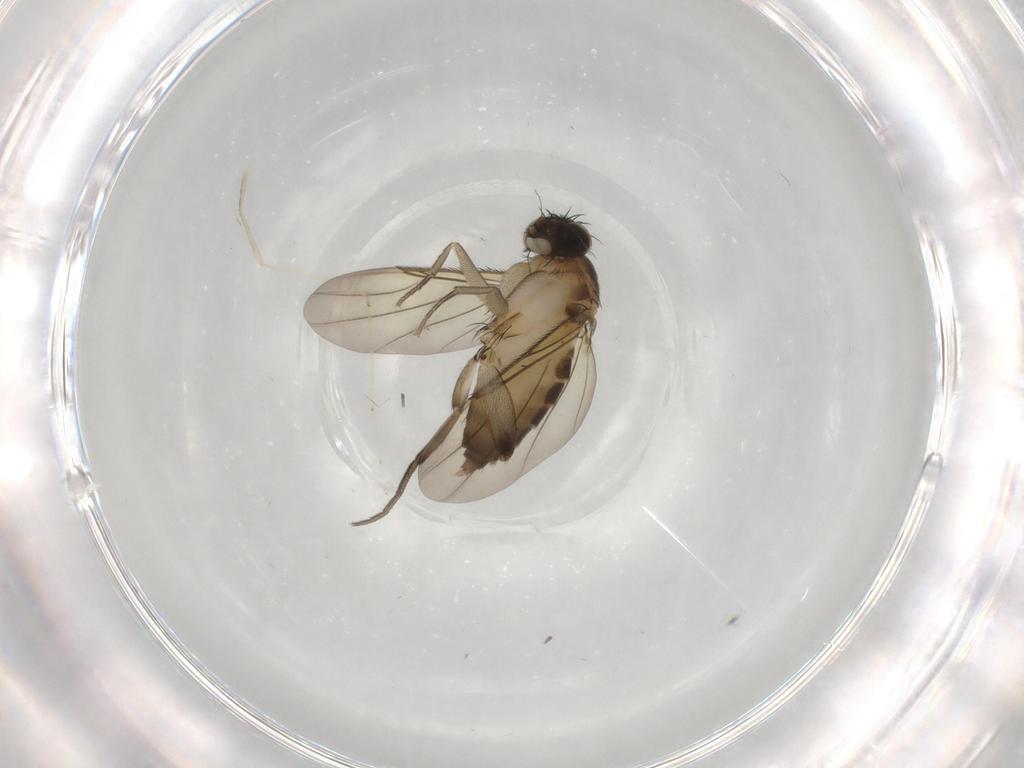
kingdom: Animalia
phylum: Arthropoda
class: Insecta
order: Diptera
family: Phoridae
